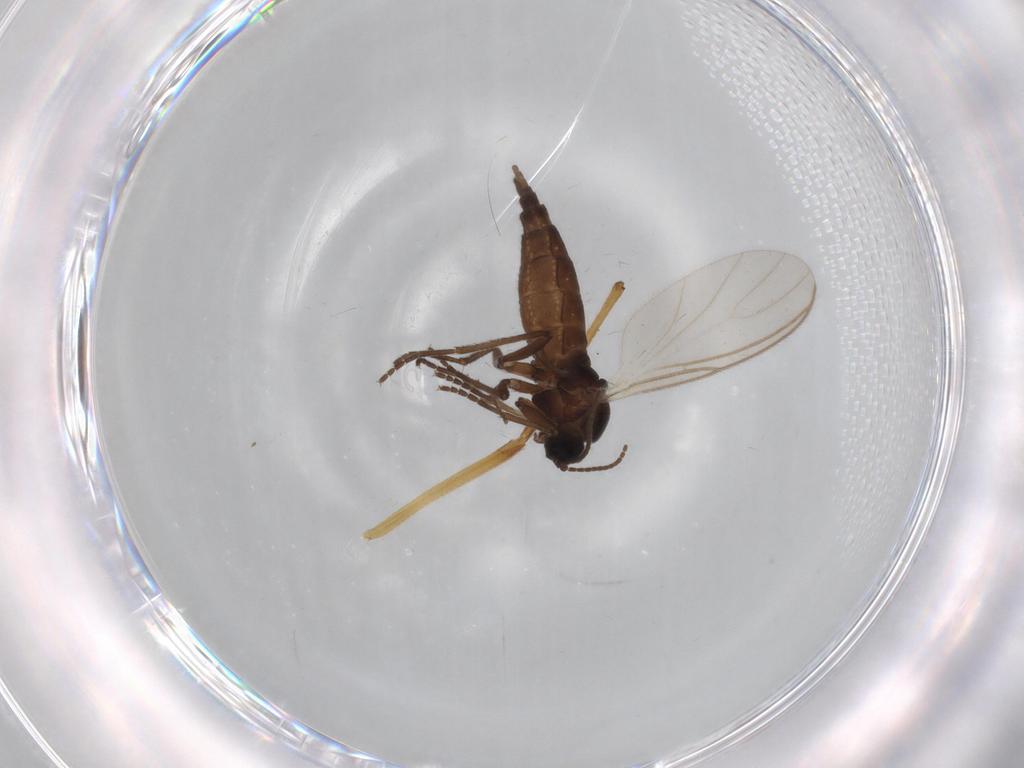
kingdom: Animalia
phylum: Arthropoda
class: Insecta
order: Diptera
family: Sciaridae
